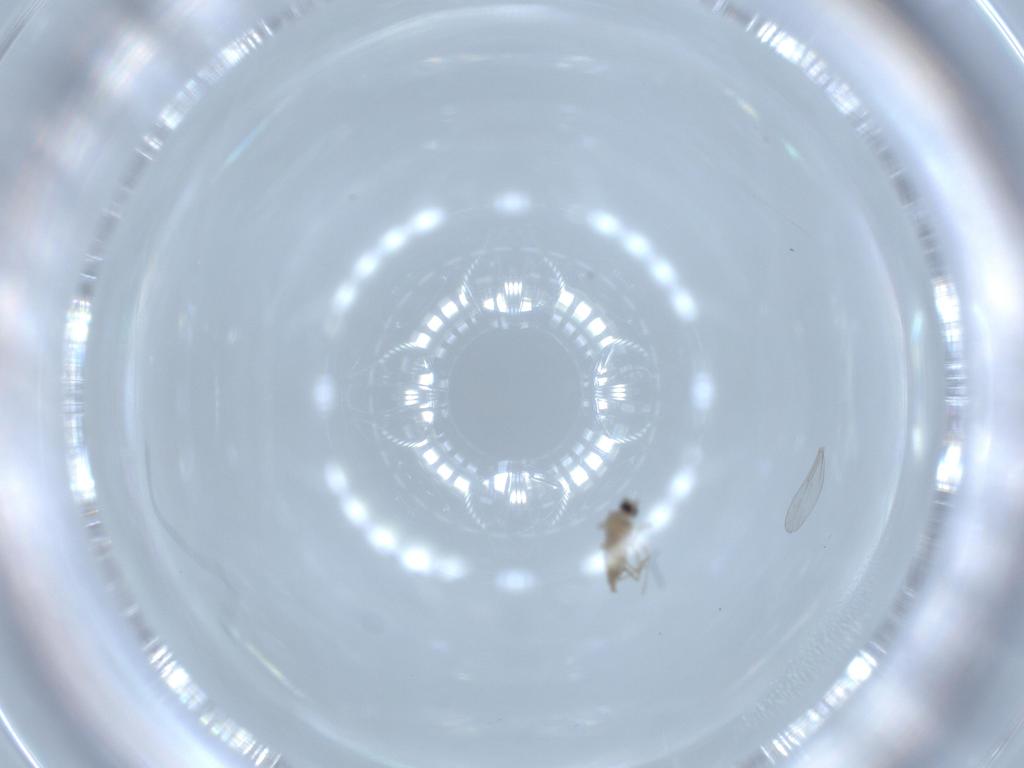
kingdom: Animalia
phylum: Arthropoda
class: Insecta
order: Diptera
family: Cecidomyiidae
